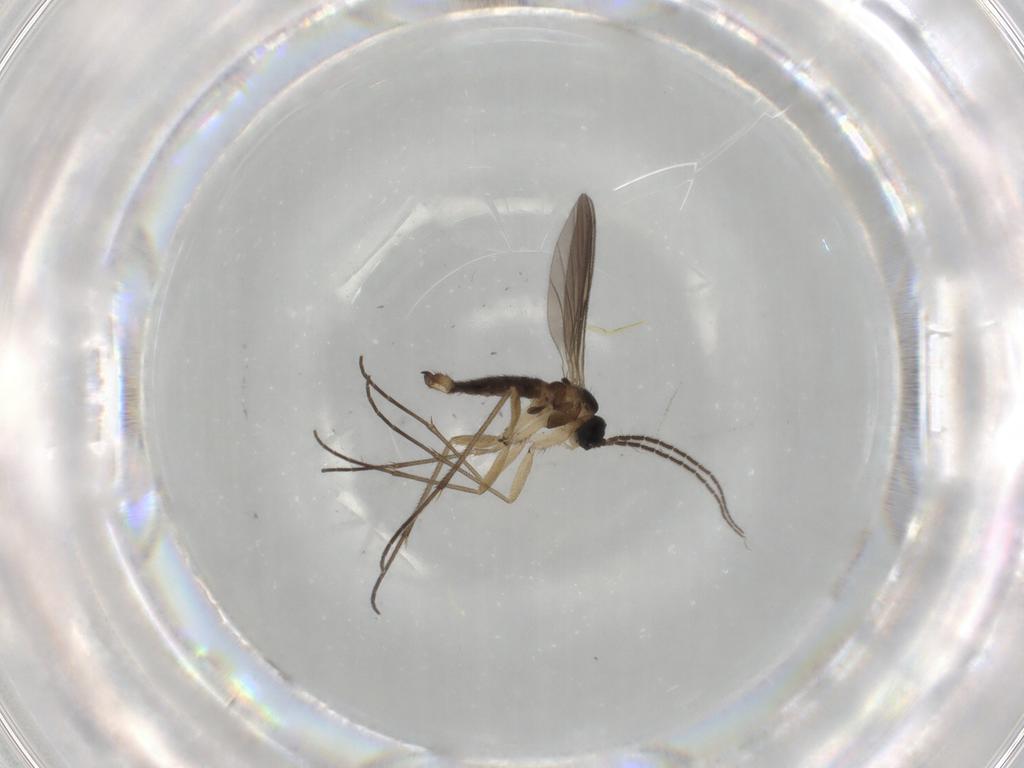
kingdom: Animalia
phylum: Arthropoda
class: Insecta
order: Diptera
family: Sciaridae
